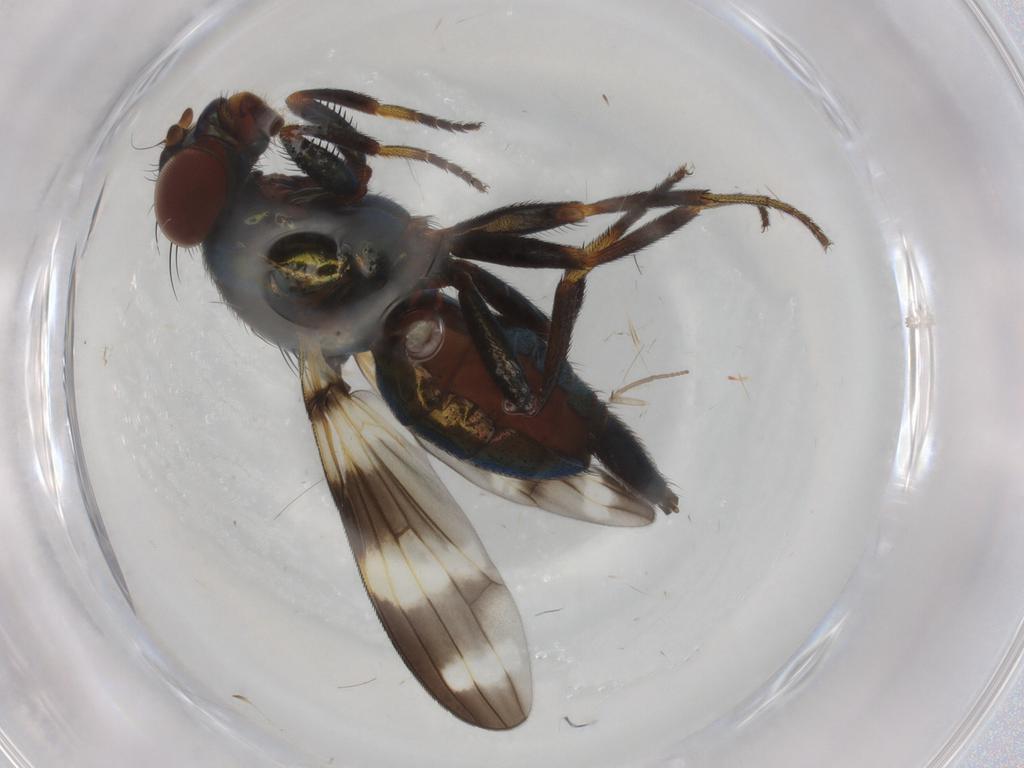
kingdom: Animalia
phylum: Arthropoda
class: Insecta
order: Diptera
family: Ulidiidae
